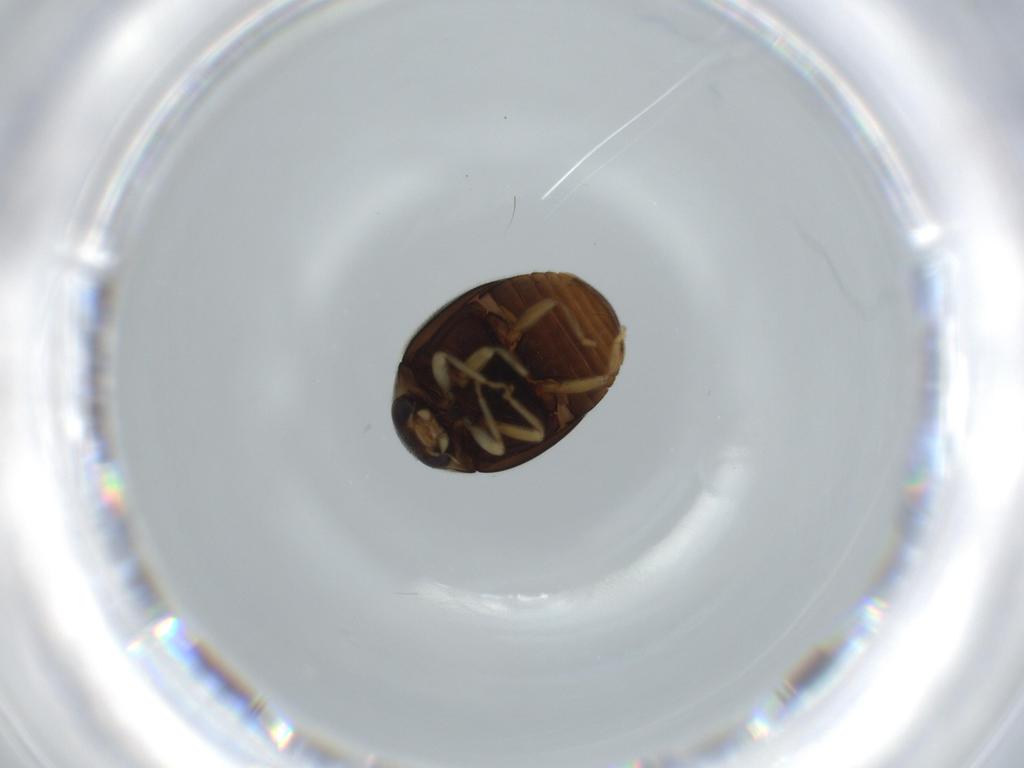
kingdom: Animalia
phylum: Arthropoda
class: Insecta
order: Coleoptera
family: Coccinellidae
